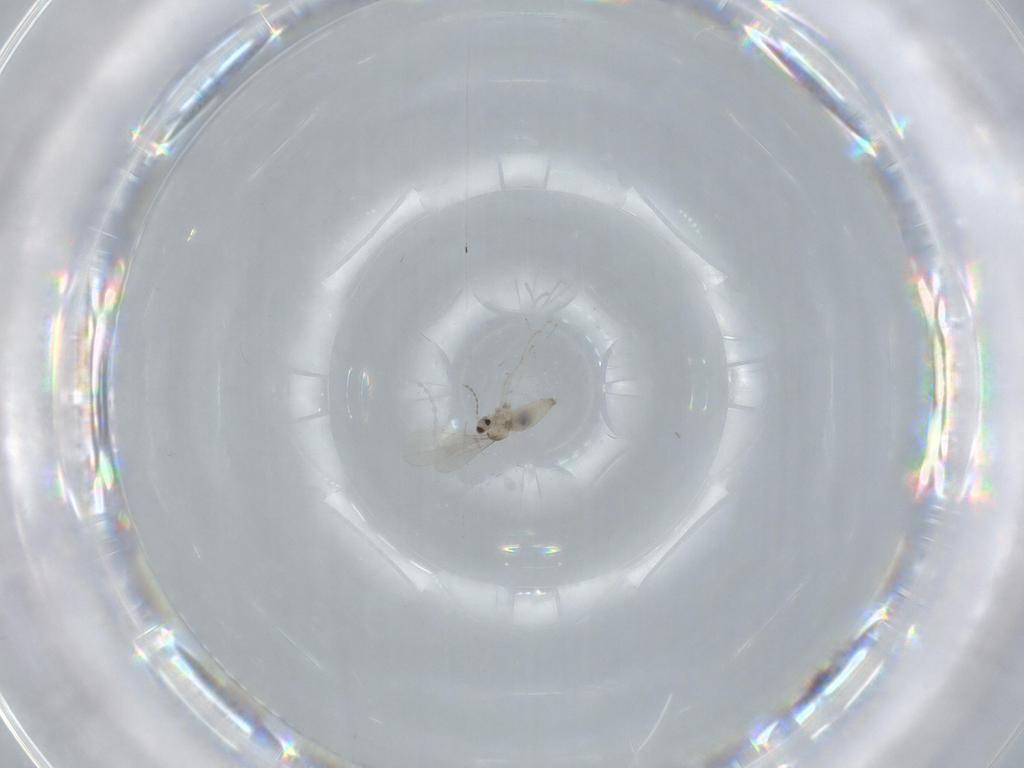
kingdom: Animalia
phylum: Arthropoda
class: Insecta
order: Diptera
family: Cecidomyiidae
